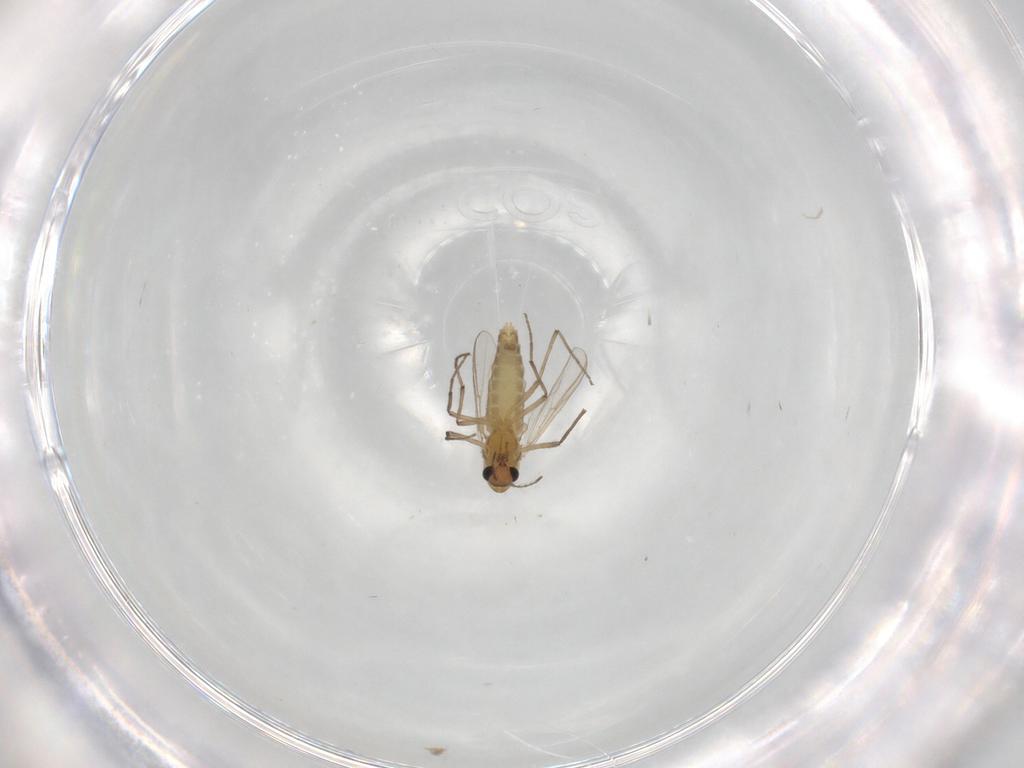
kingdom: Animalia
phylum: Arthropoda
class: Insecta
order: Diptera
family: Chironomidae
